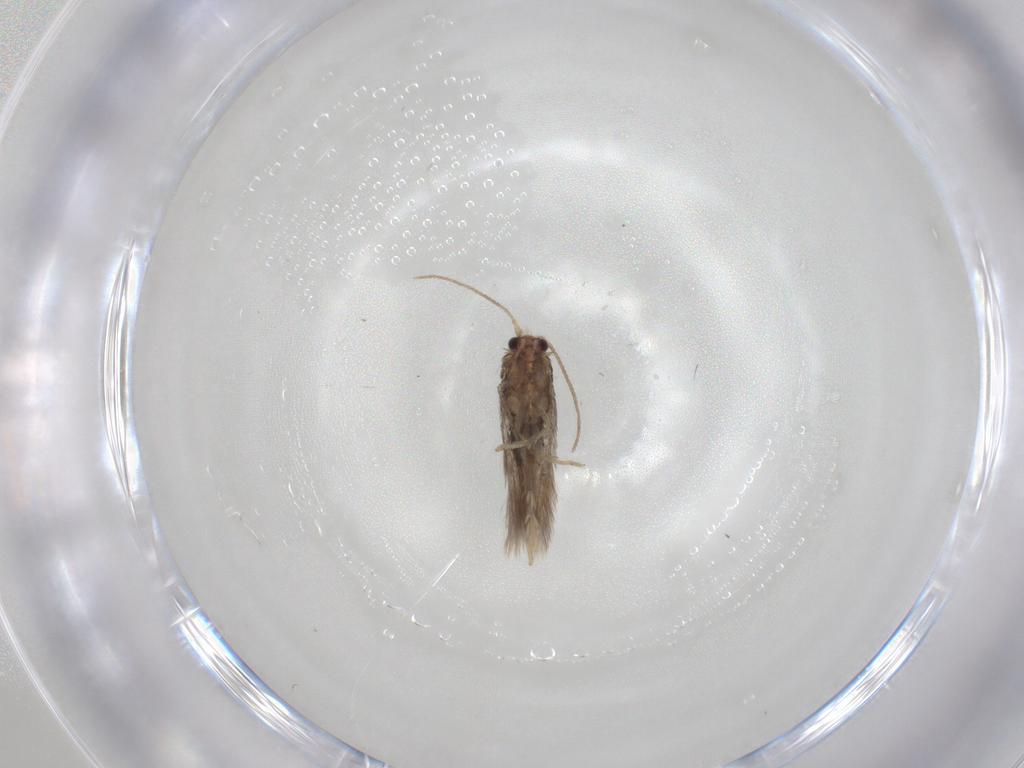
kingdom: Animalia
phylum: Arthropoda
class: Insecta
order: Lepidoptera
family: Nepticulidae
